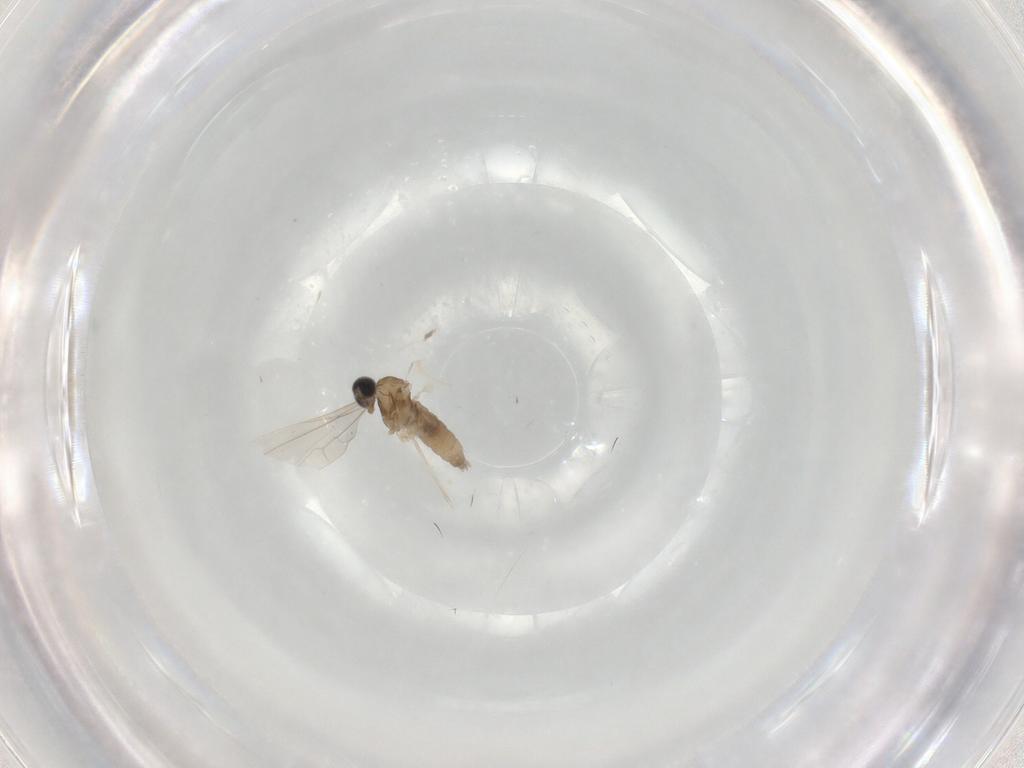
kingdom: Animalia
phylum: Arthropoda
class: Insecta
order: Diptera
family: Cecidomyiidae
